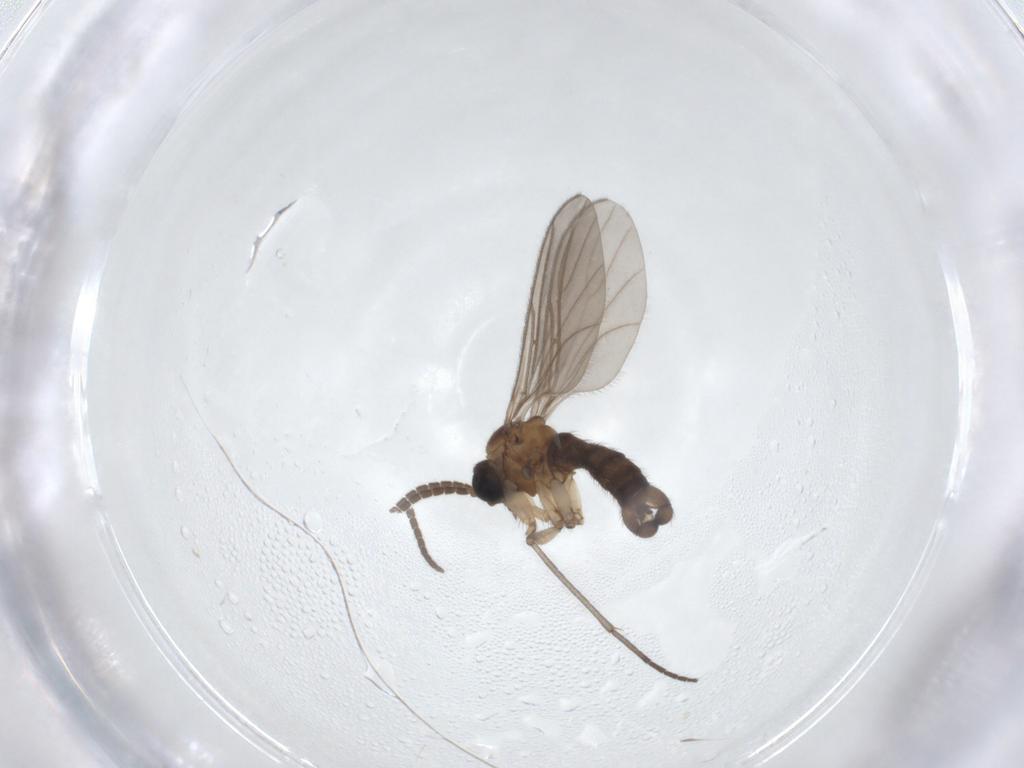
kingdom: Animalia
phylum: Arthropoda
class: Insecta
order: Diptera
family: Sciaridae
